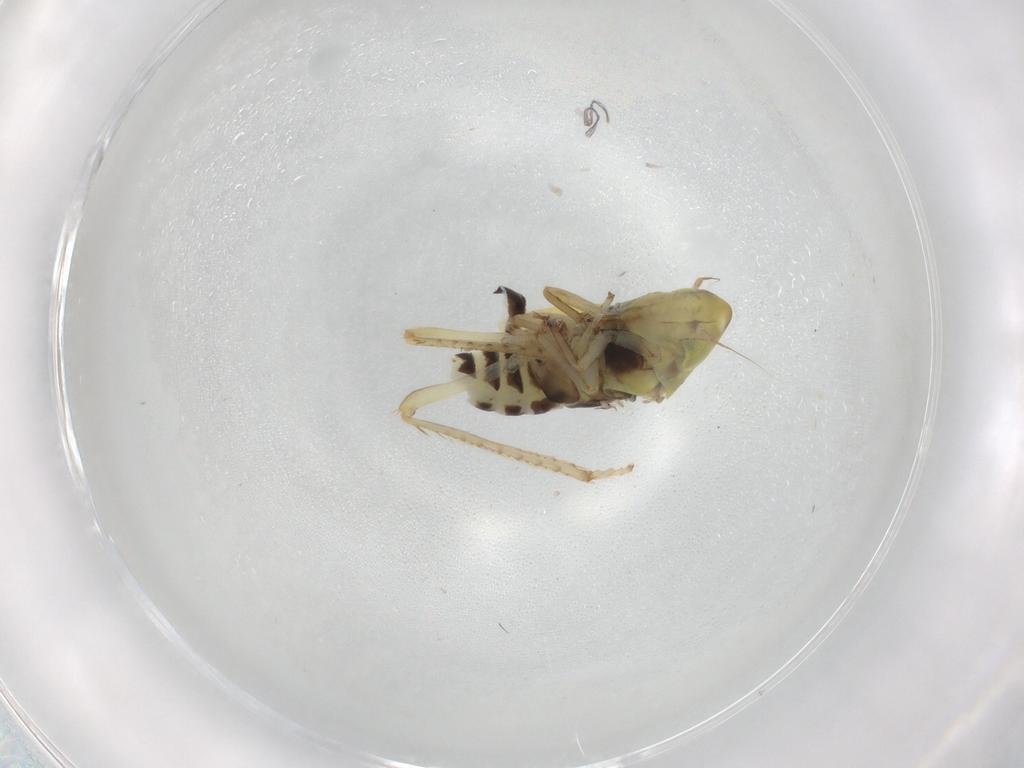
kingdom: Animalia
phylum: Arthropoda
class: Insecta
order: Hemiptera
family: Cicadellidae
